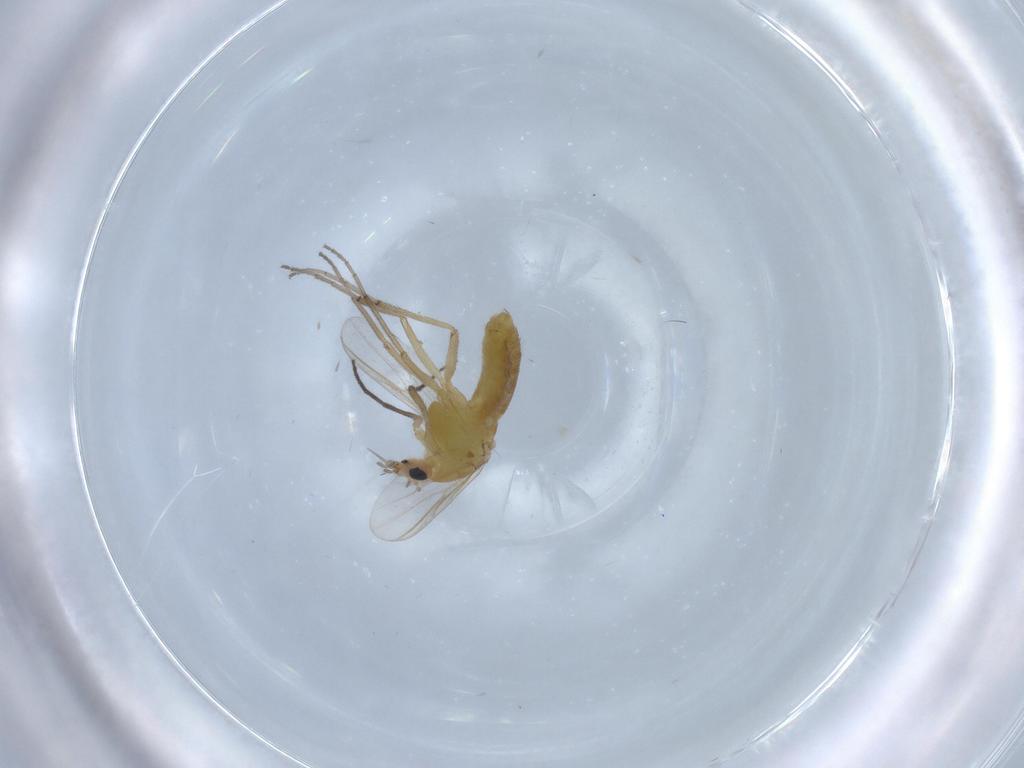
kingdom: Animalia
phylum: Arthropoda
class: Insecta
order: Diptera
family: Chironomidae
